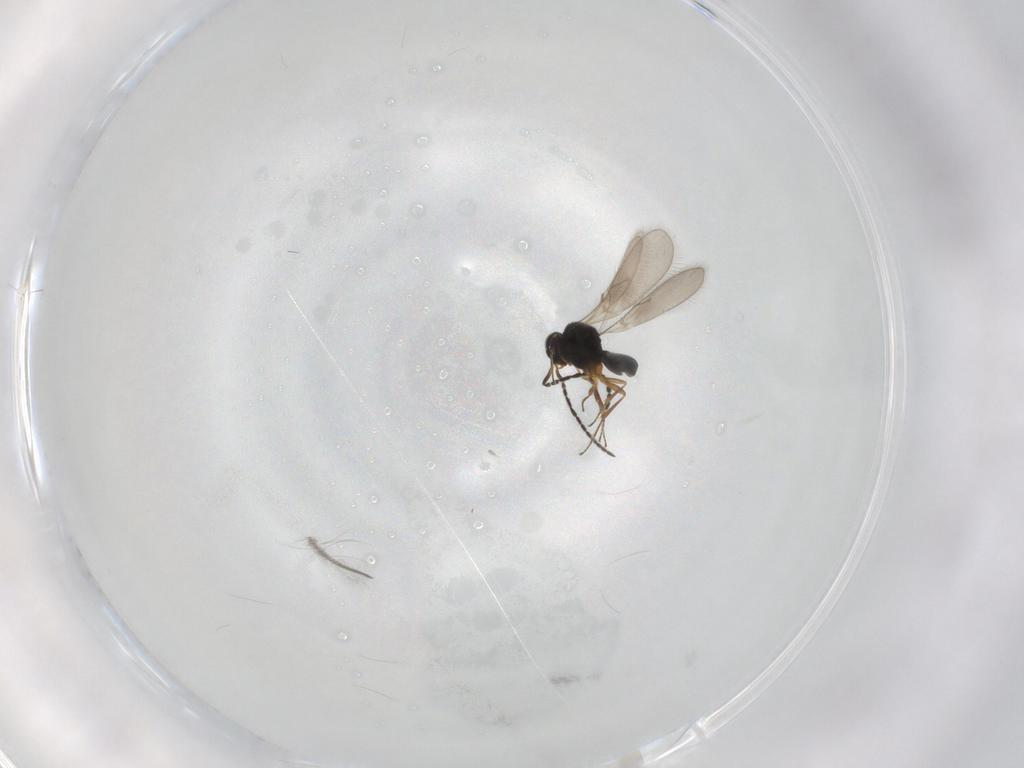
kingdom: Animalia
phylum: Arthropoda
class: Insecta
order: Hymenoptera
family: Scelionidae
